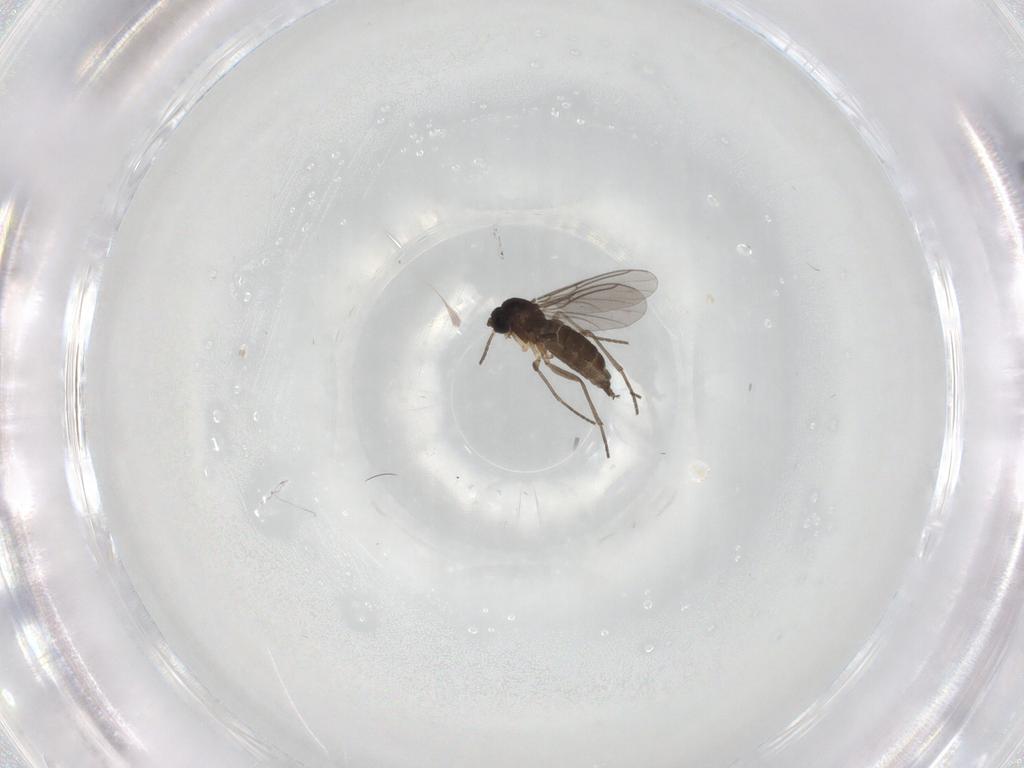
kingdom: Animalia
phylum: Arthropoda
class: Insecta
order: Diptera
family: Sciaridae
